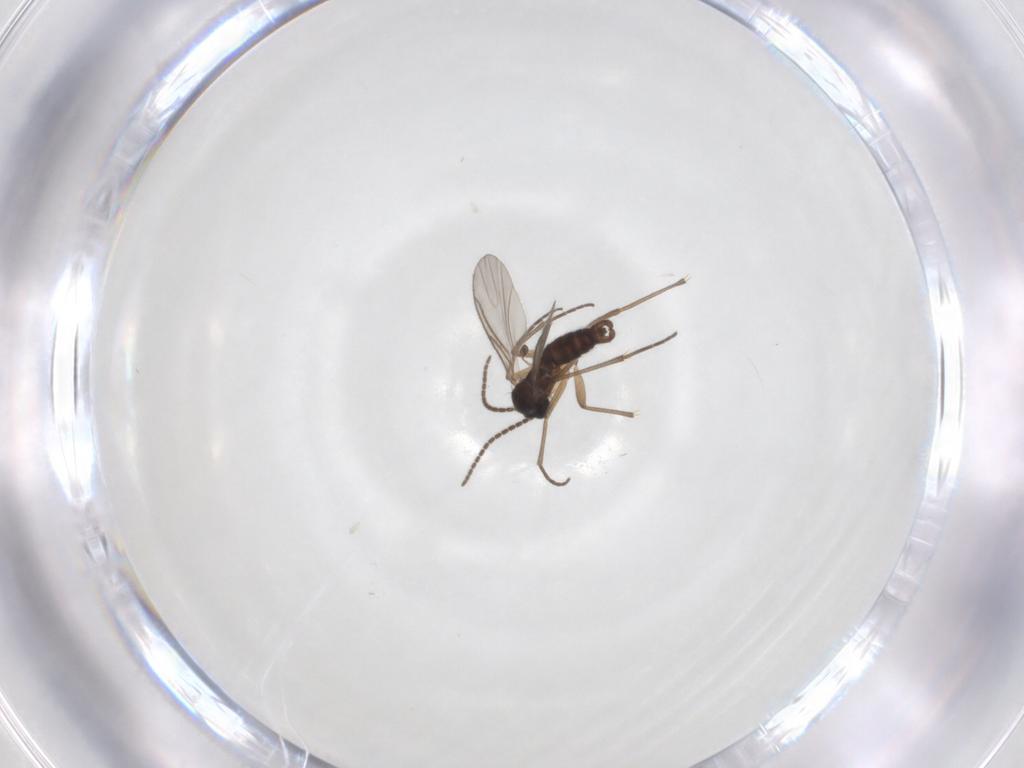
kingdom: Animalia
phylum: Arthropoda
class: Insecta
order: Diptera
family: Sciaridae
